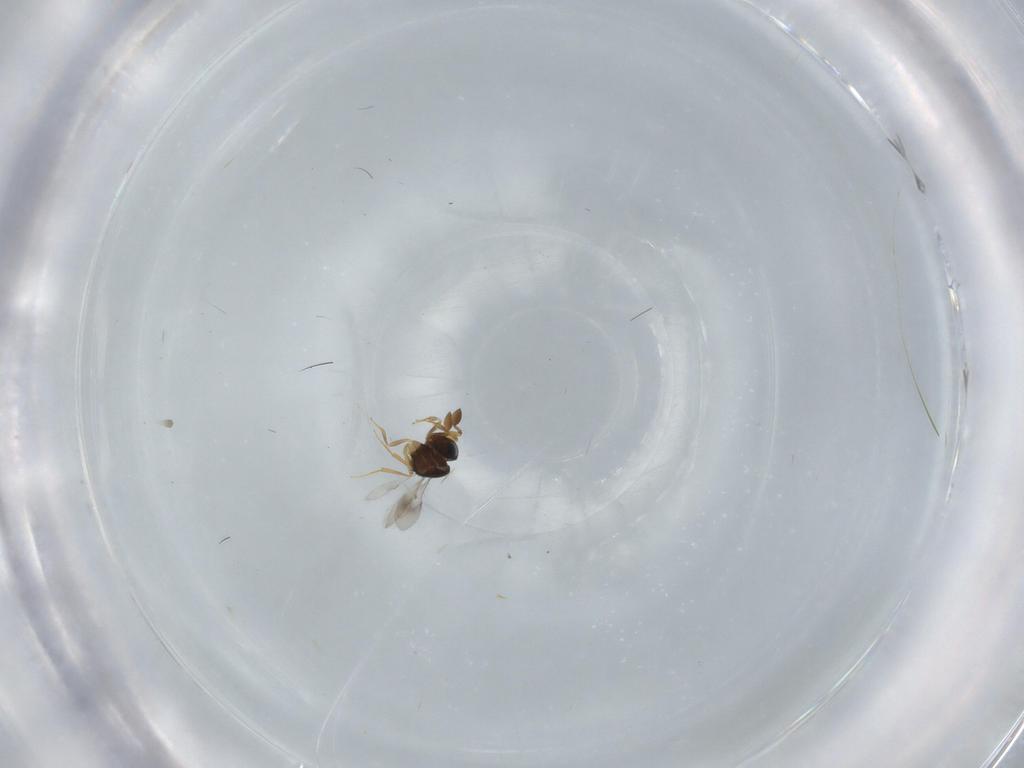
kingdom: Animalia
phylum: Arthropoda
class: Insecta
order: Hymenoptera
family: Scelionidae
